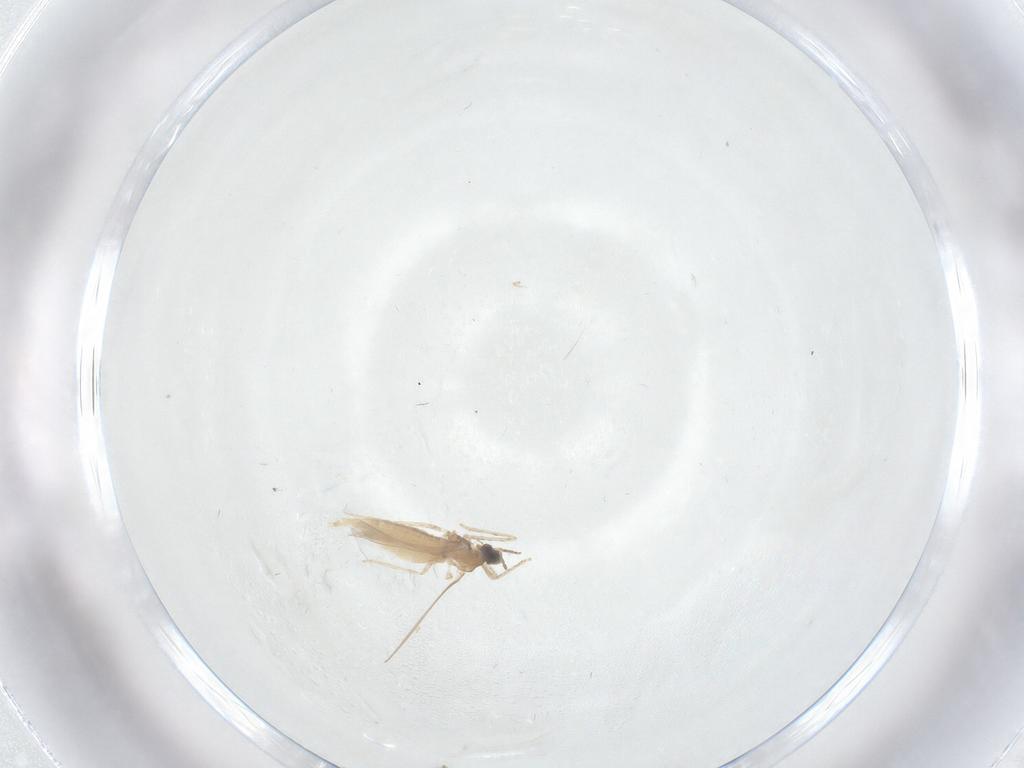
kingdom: Animalia
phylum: Arthropoda
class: Insecta
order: Diptera
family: Cecidomyiidae
